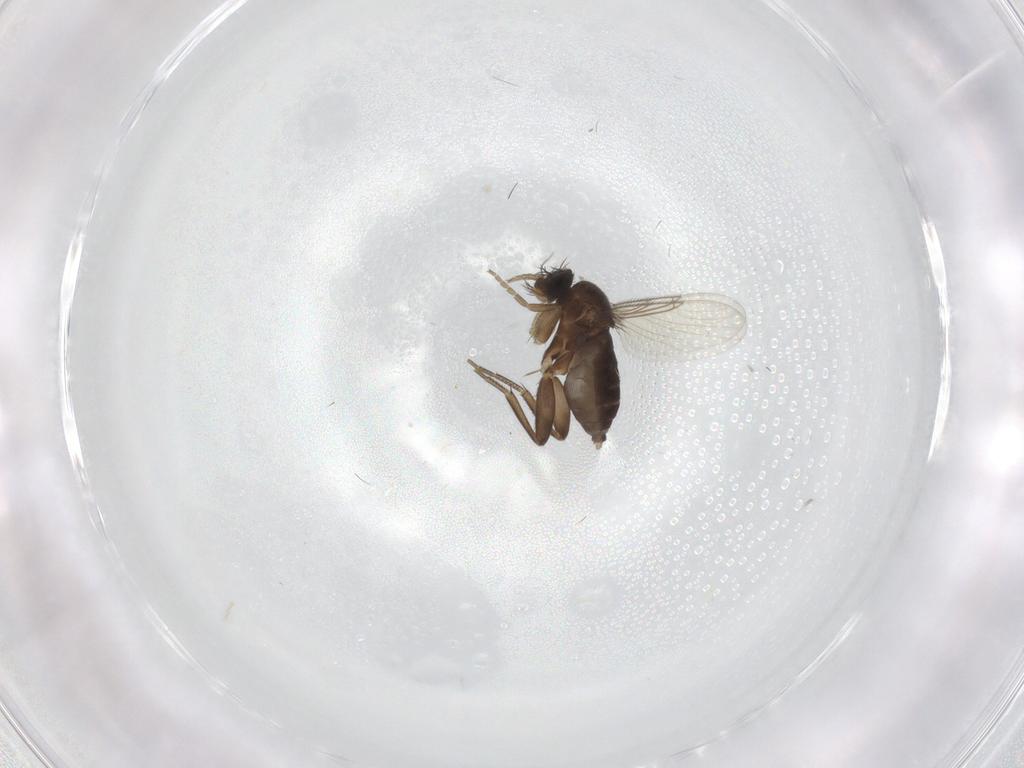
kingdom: Animalia
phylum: Arthropoda
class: Insecta
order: Diptera
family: Phoridae
